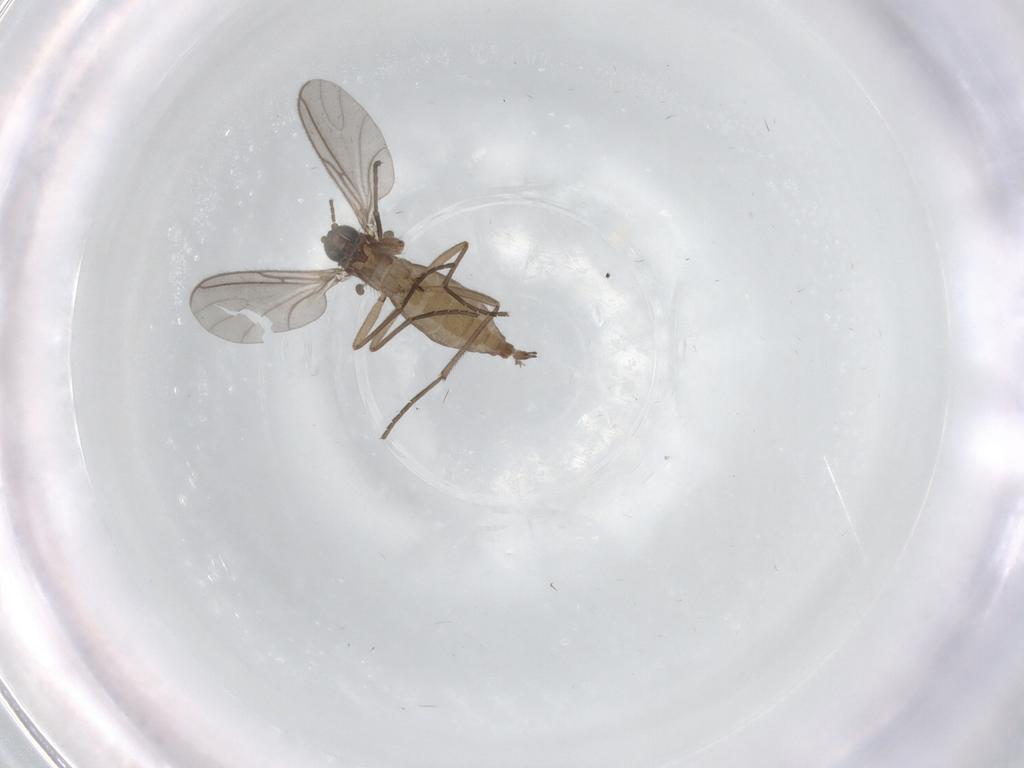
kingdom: Animalia
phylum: Arthropoda
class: Insecta
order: Diptera
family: Sciaridae
